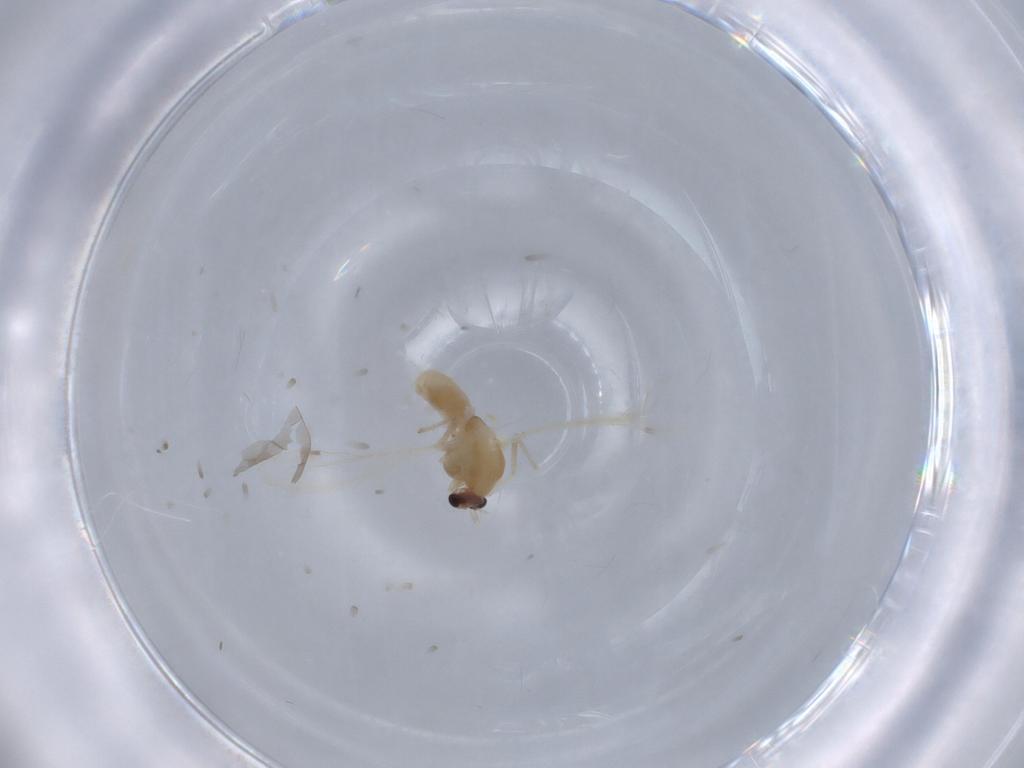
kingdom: Animalia
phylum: Arthropoda
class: Insecta
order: Diptera
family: Chironomidae
